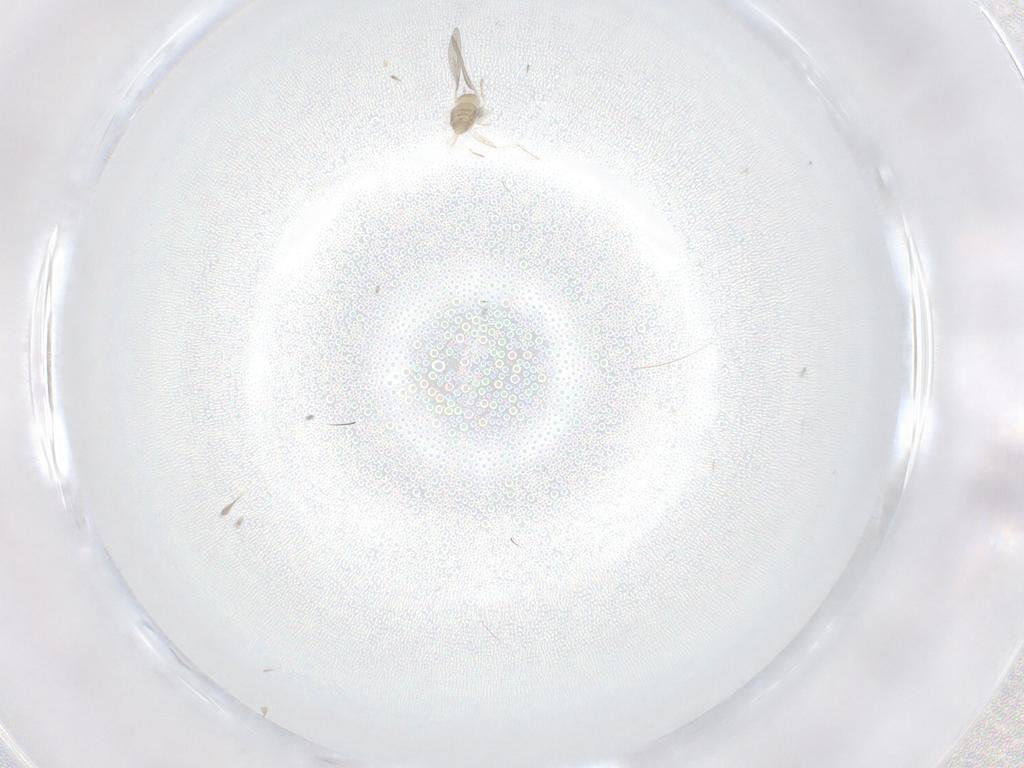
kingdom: Animalia
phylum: Arthropoda
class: Insecta
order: Diptera
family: Cecidomyiidae
